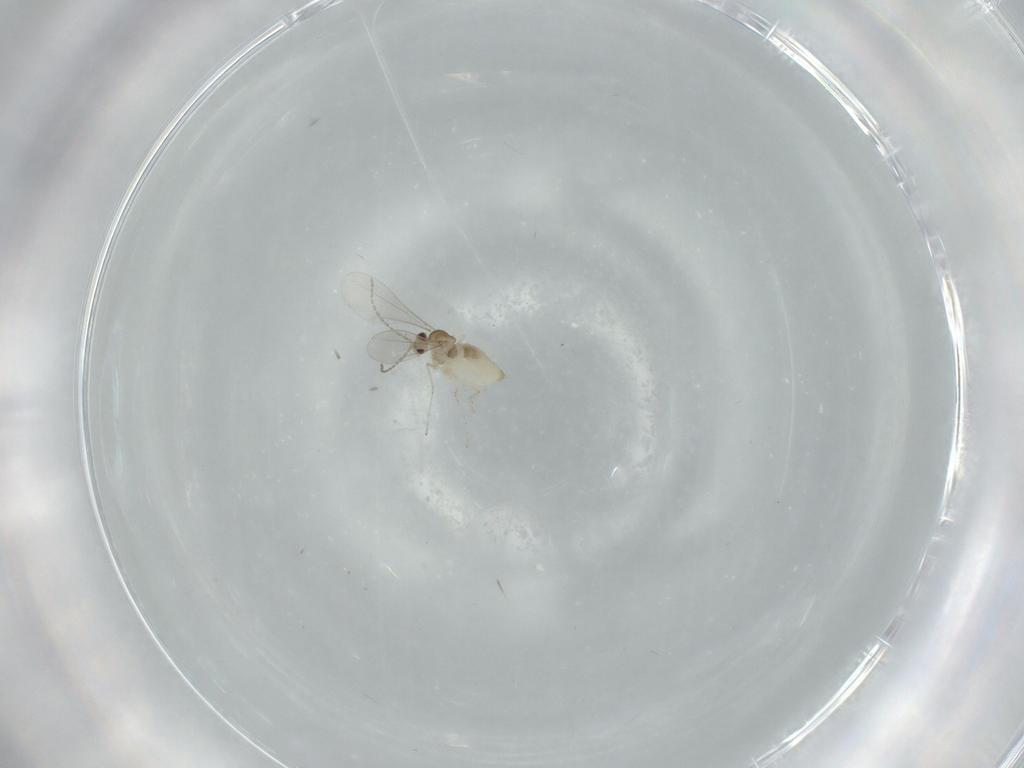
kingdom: Animalia
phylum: Arthropoda
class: Insecta
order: Diptera
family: Cecidomyiidae
